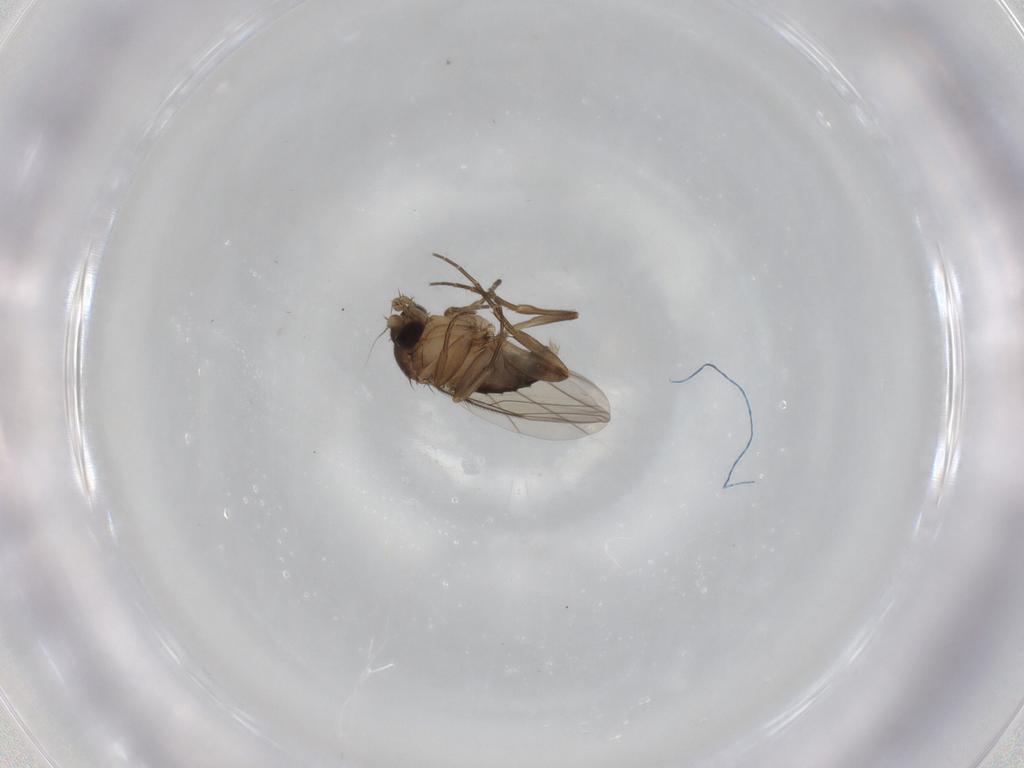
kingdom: Animalia
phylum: Arthropoda
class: Insecta
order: Diptera
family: Phoridae
